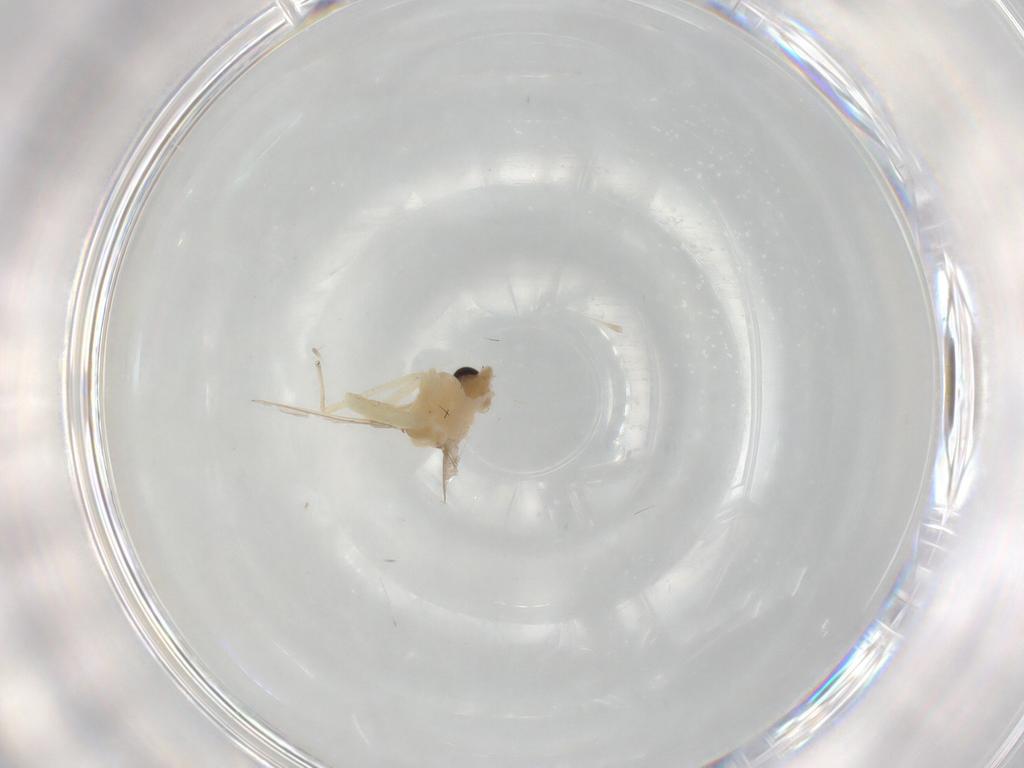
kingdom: Animalia
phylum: Arthropoda
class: Insecta
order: Diptera
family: Chironomidae
